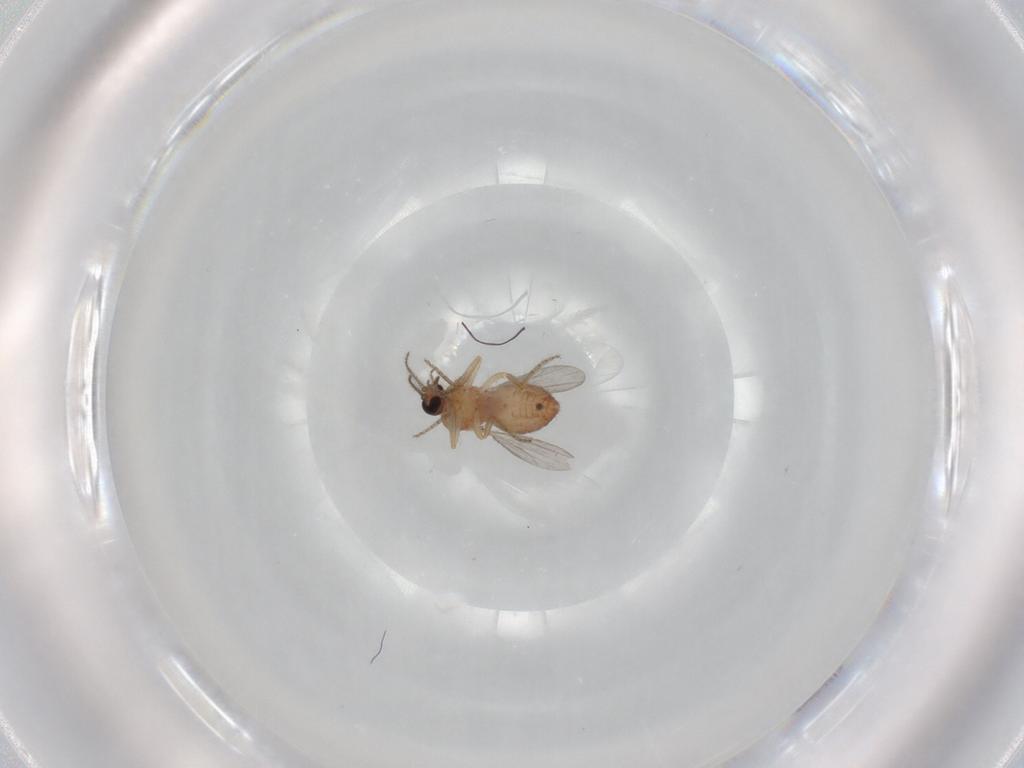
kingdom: Animalia
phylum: Arthropoda
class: Insecta
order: Diptera
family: Ceratopogonidae
